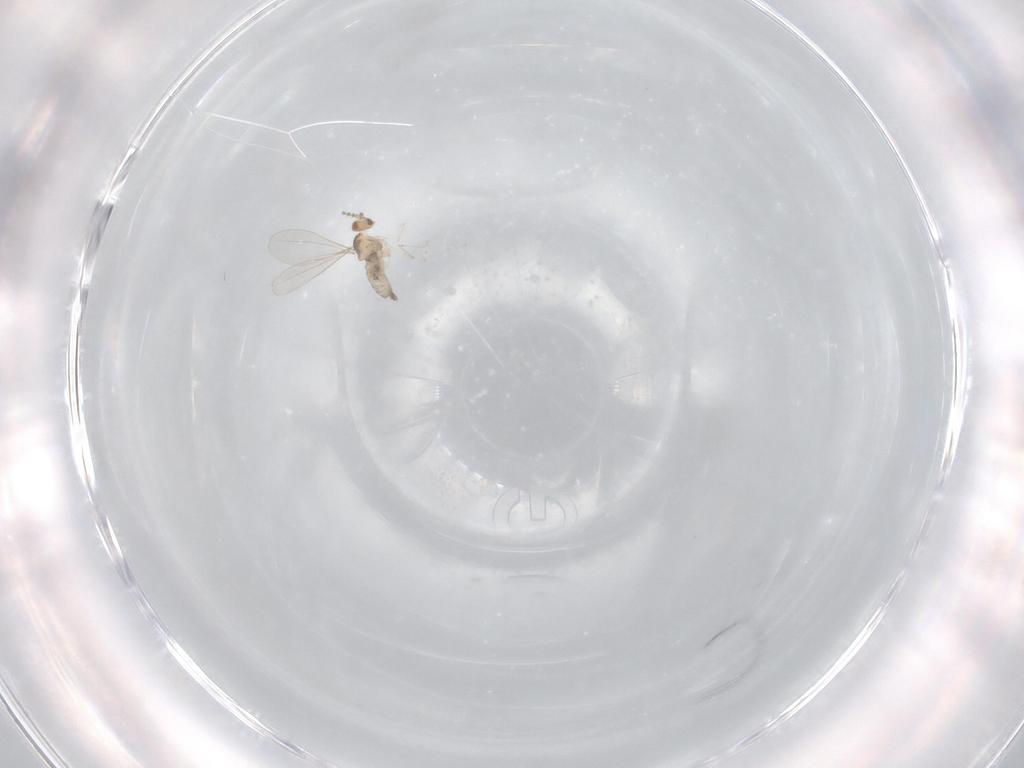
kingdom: Animalia
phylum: Arthropoda
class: Insecta
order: Diptera
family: Cecidomyiidae
